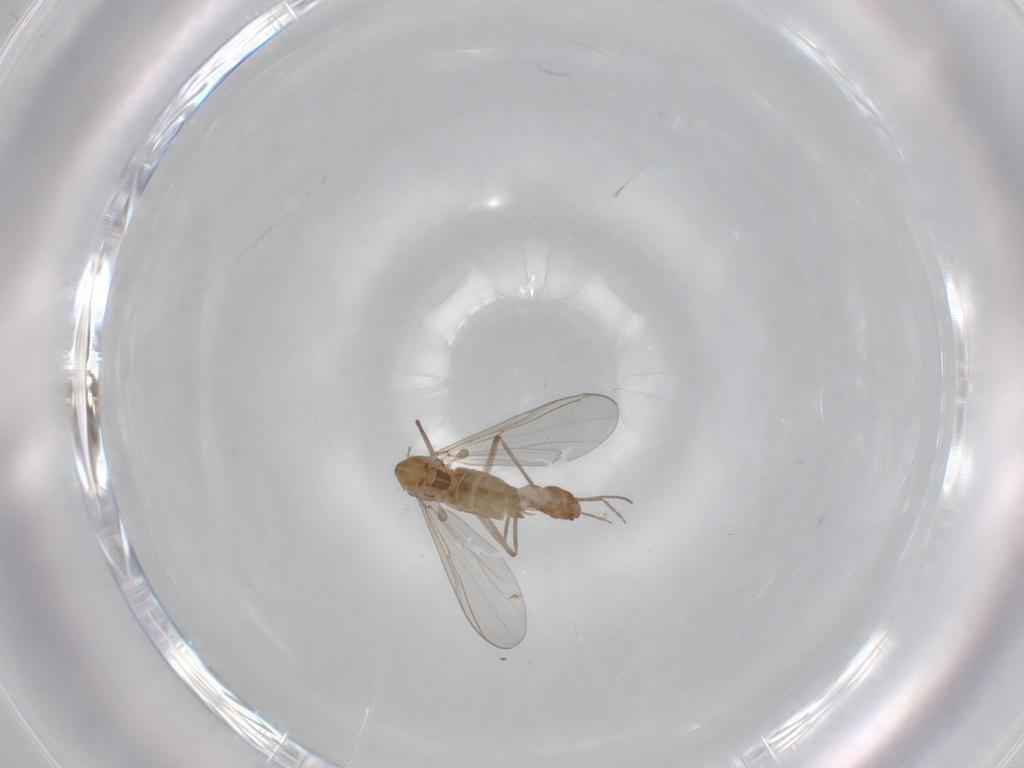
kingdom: Animalia
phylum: Arthropoda
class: Insecta
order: Diptera
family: Chironomidae
